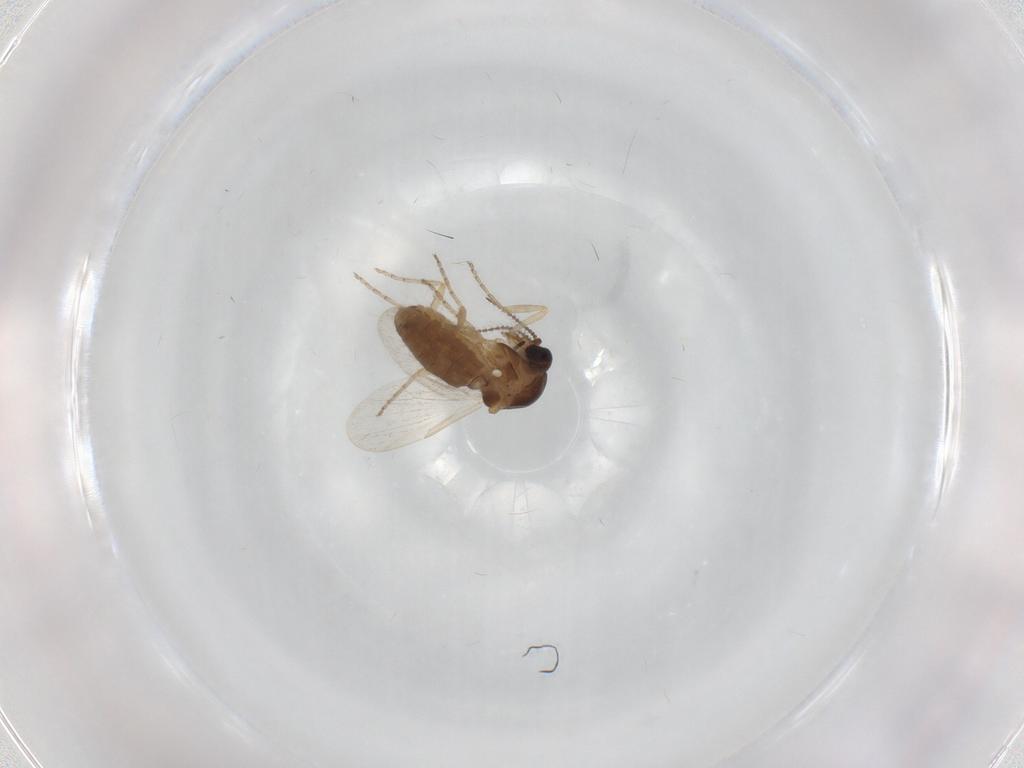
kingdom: Animalia
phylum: Arthropoda
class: Insecta
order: Diptera
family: Ceratopogonidae
